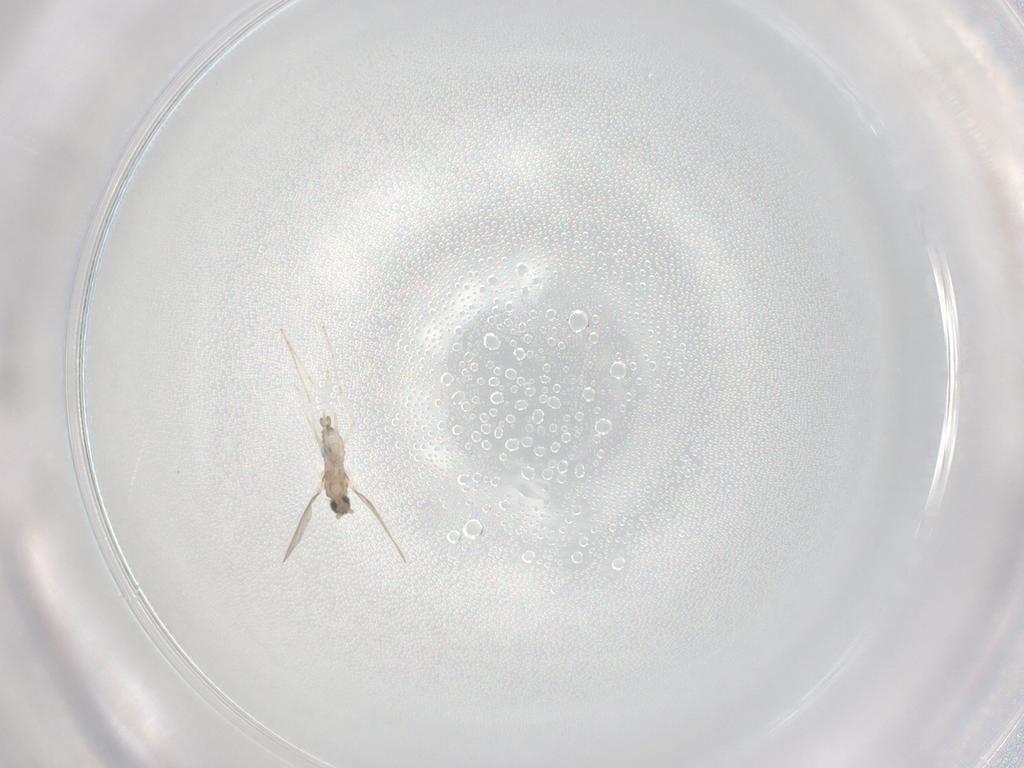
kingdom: Animalia
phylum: Arthropoda
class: Insecta
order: Diptera
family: Cecidomyiidae
